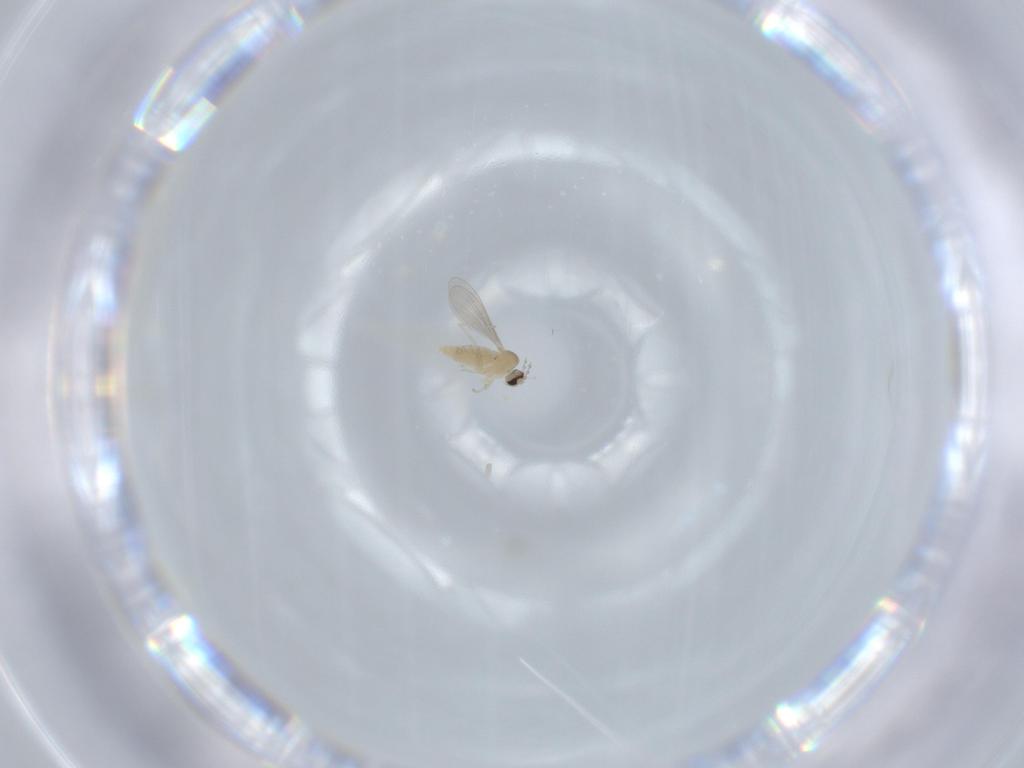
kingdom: Animalia
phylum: Arthropoda
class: Insecta
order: Diptera
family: Cecidomyiidae
